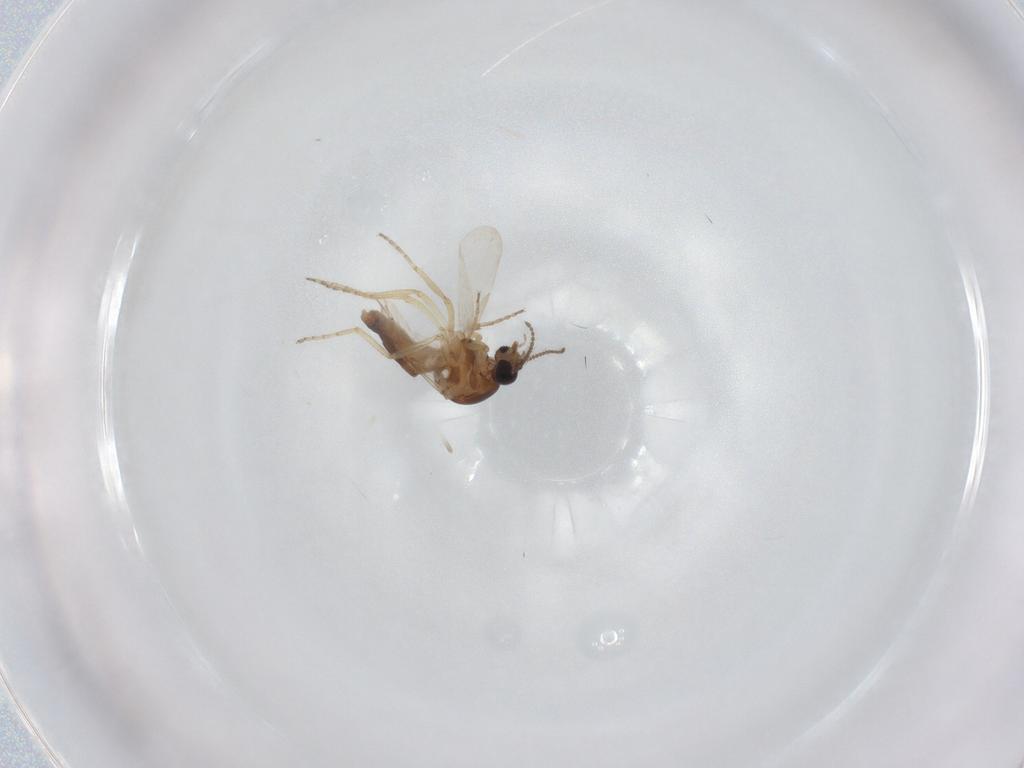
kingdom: Animalia
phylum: Arthropoda
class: Insecta
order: Diptera
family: Ceratopogonidae
